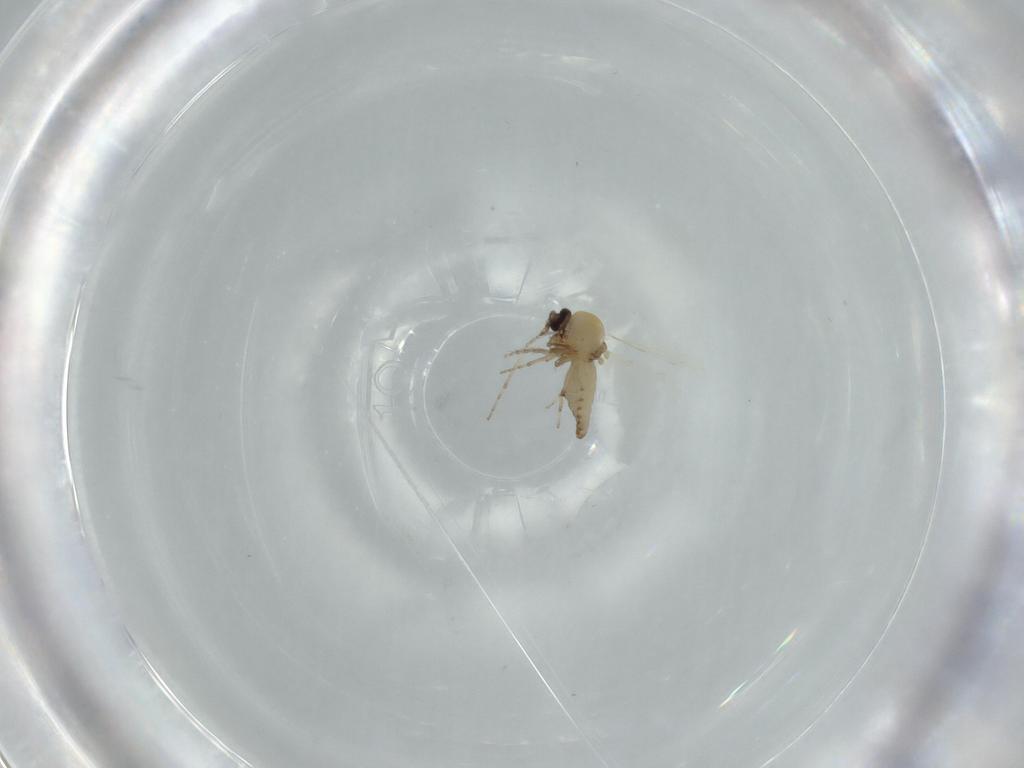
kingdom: Animalia
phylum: Arthropoda
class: Insecta
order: Diptera
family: Ceratopogonidae
